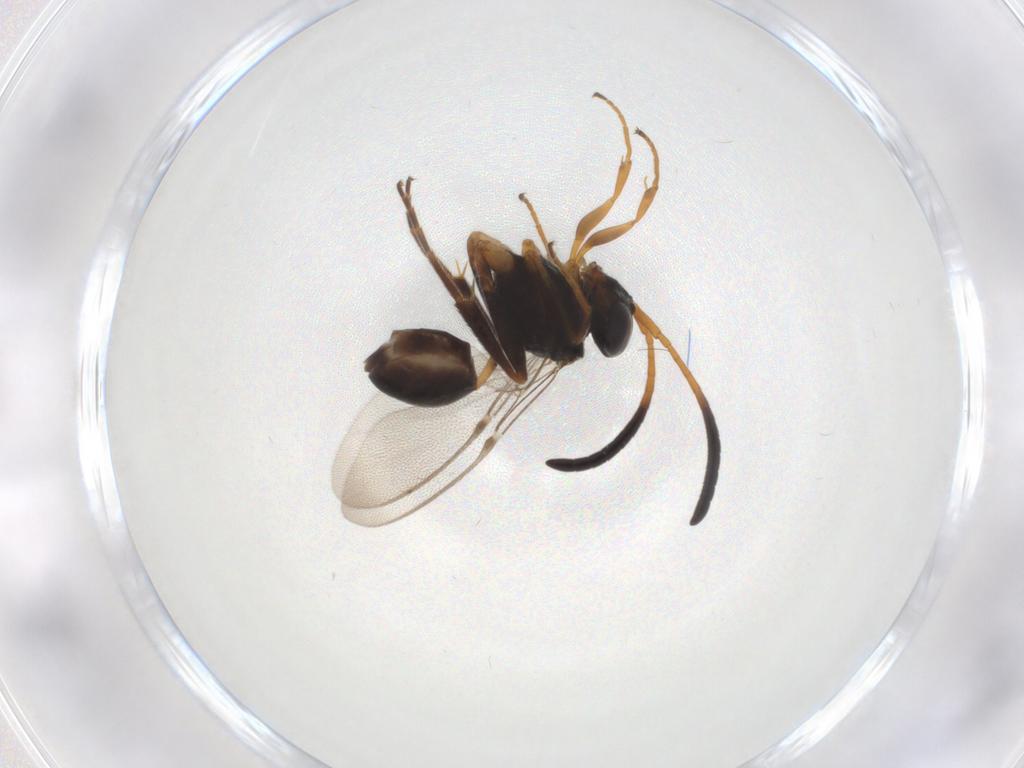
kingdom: Animalia
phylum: Arthropoda
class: Insecta
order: Hymenoptera
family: Evaniidae
